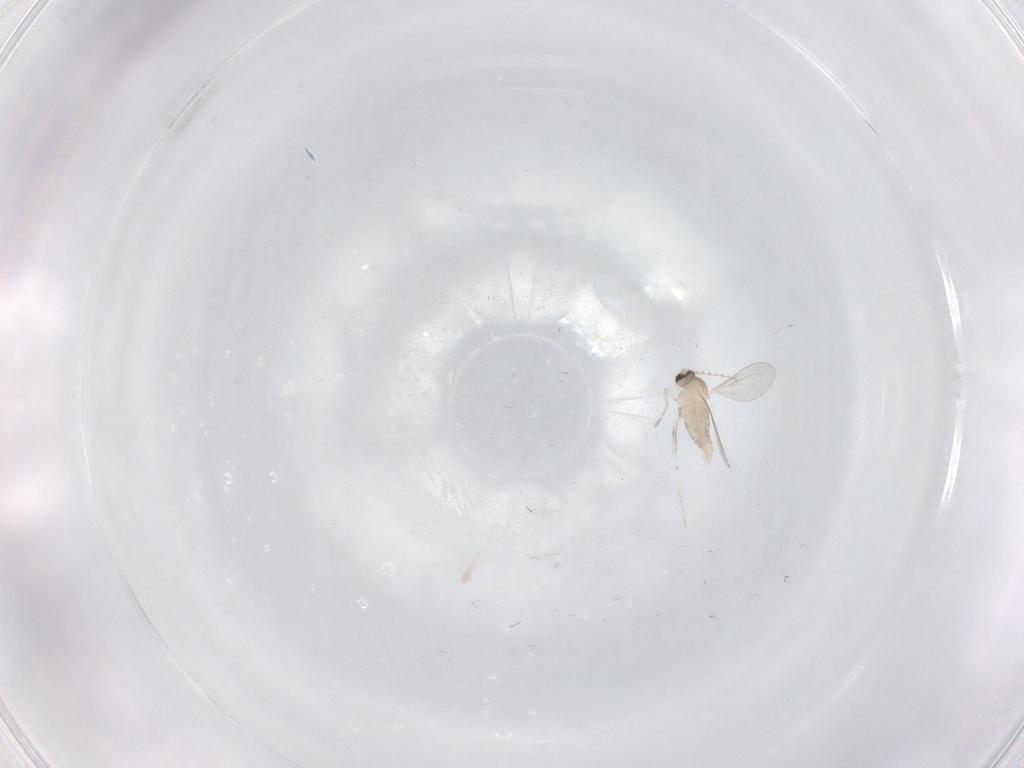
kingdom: Animalia
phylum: Arthropoda
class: Insecta
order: Diptera
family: Cecidomyiidae
